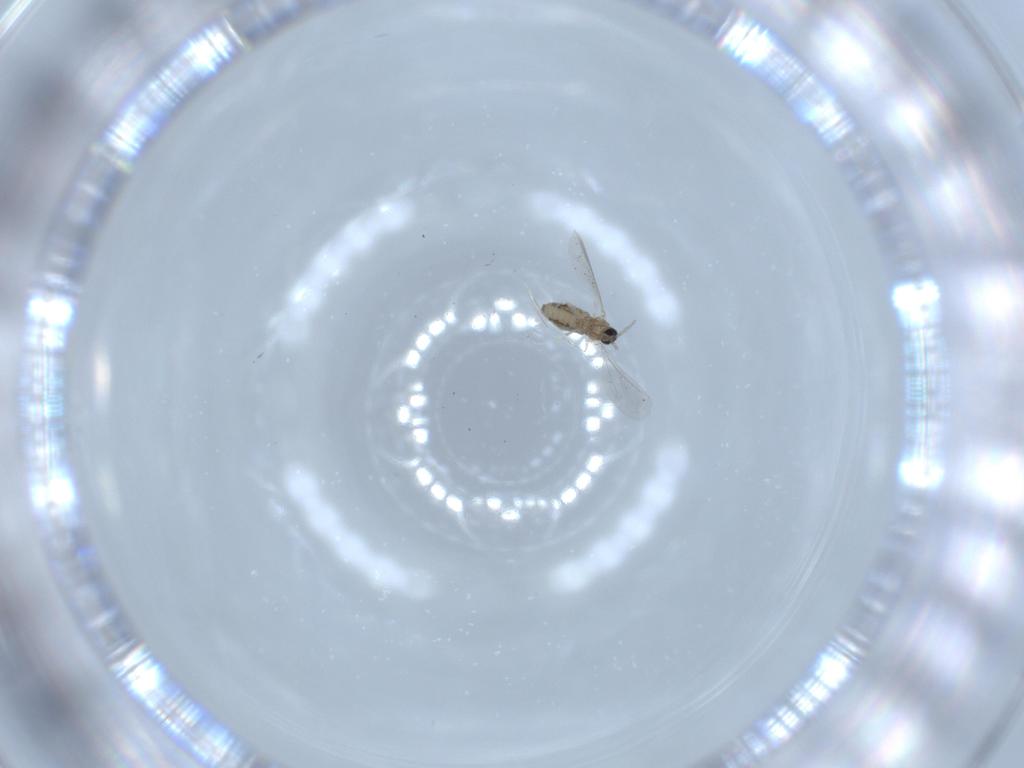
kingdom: Animalia
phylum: Arthropoda
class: Insecta
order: Diptera
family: Cecidomyiidae
